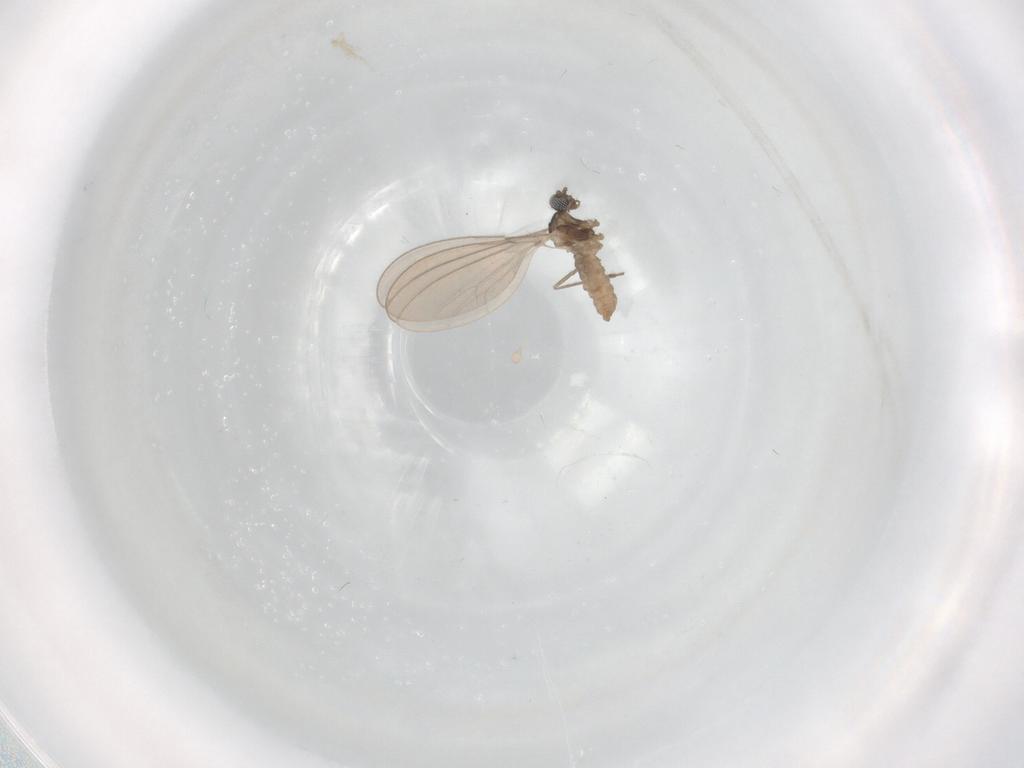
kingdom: Animalia
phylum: Arthropoda
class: Insecta
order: Diptera
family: Cecidomyiidae
